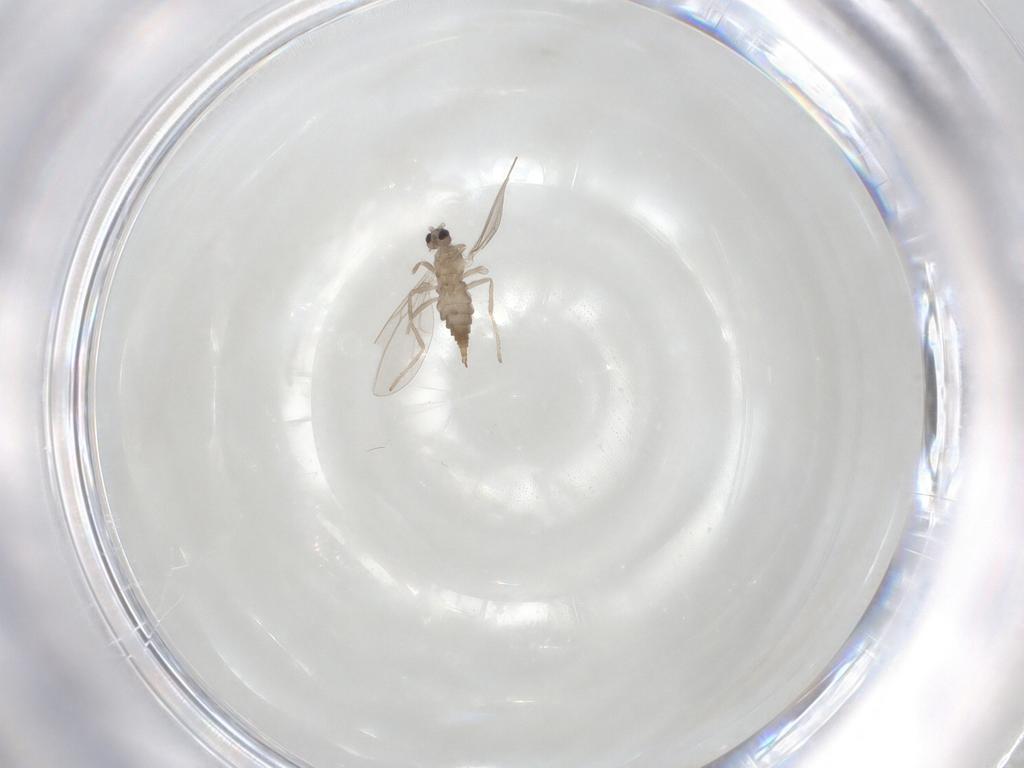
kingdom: Animalia
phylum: Arthropoda
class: Insecta
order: Diptera
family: Cecidomyiidae
